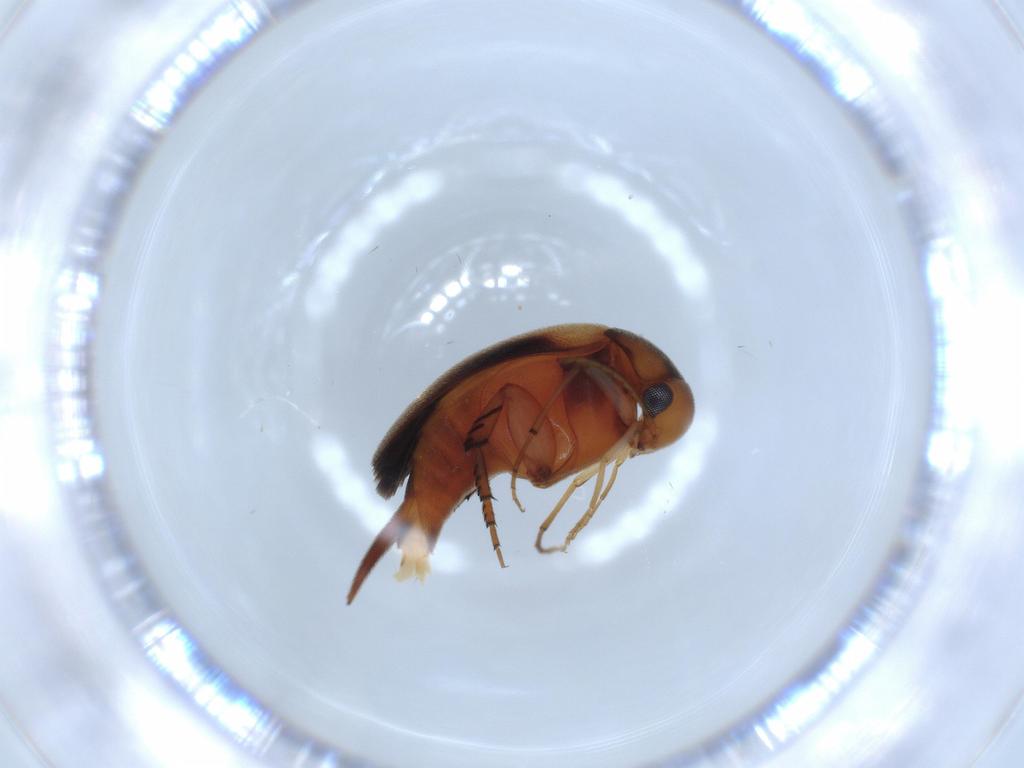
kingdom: Animalia
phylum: Arthropoda
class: Insecta
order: Coleoptera
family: Mordellidae
